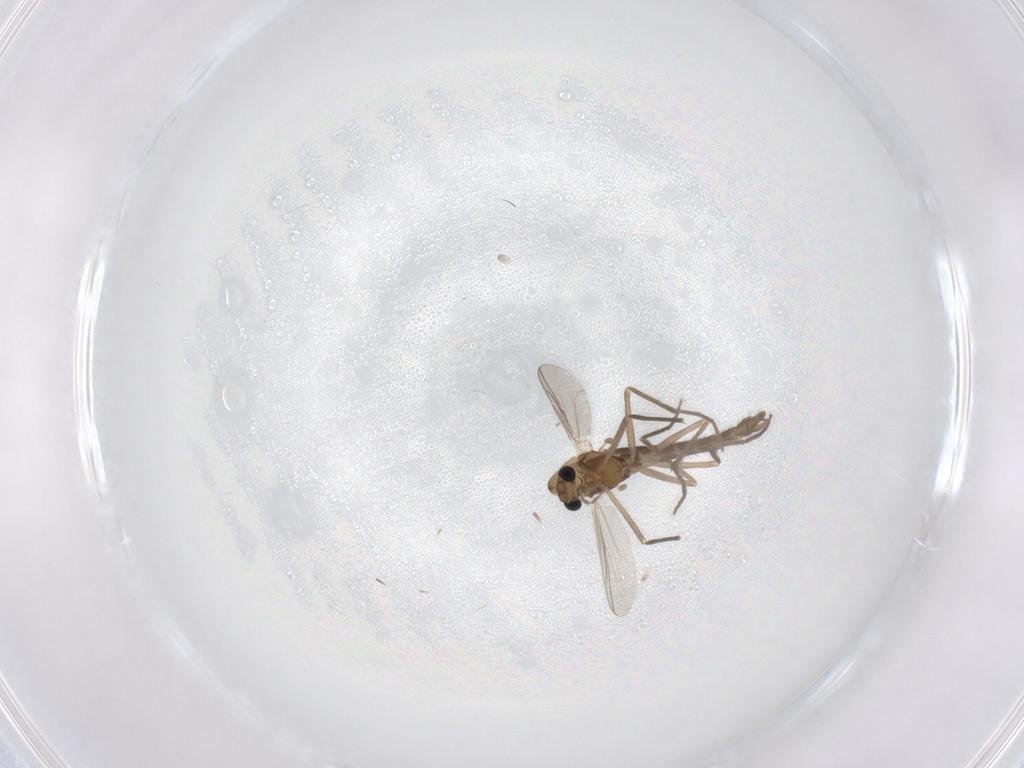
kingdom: Animalia
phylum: Arthropoda
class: Insecta
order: Diptera
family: Chironomidae
